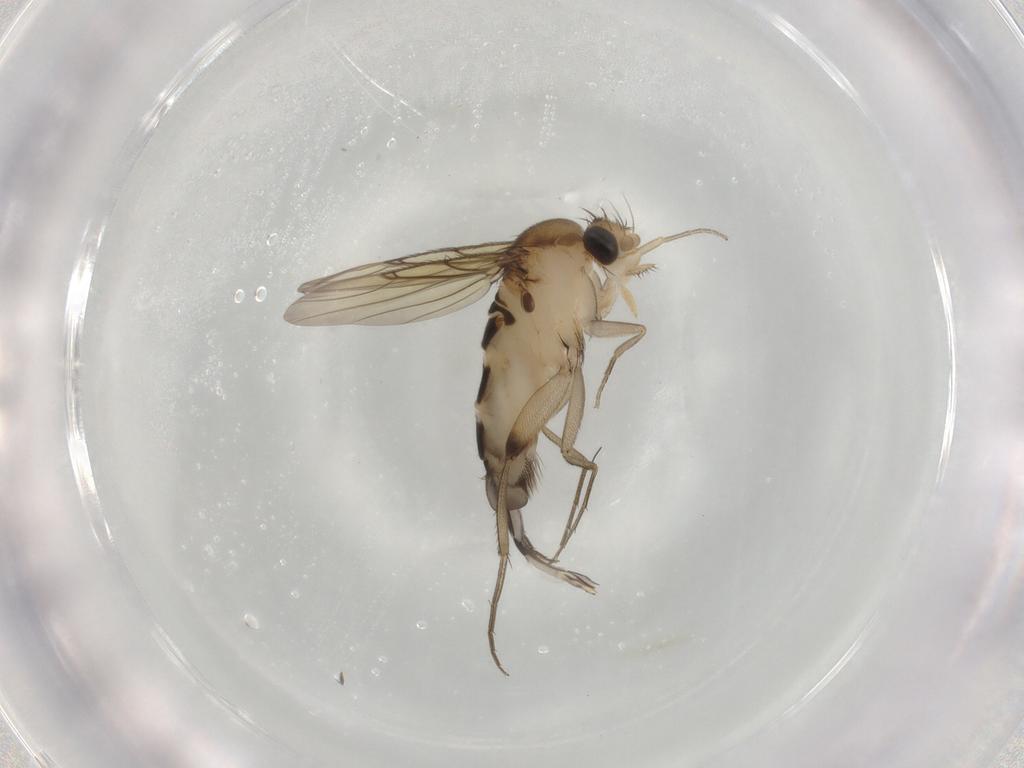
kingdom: Animalia
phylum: Arthropoda
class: Insecta
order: Diptera
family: Phoridae
